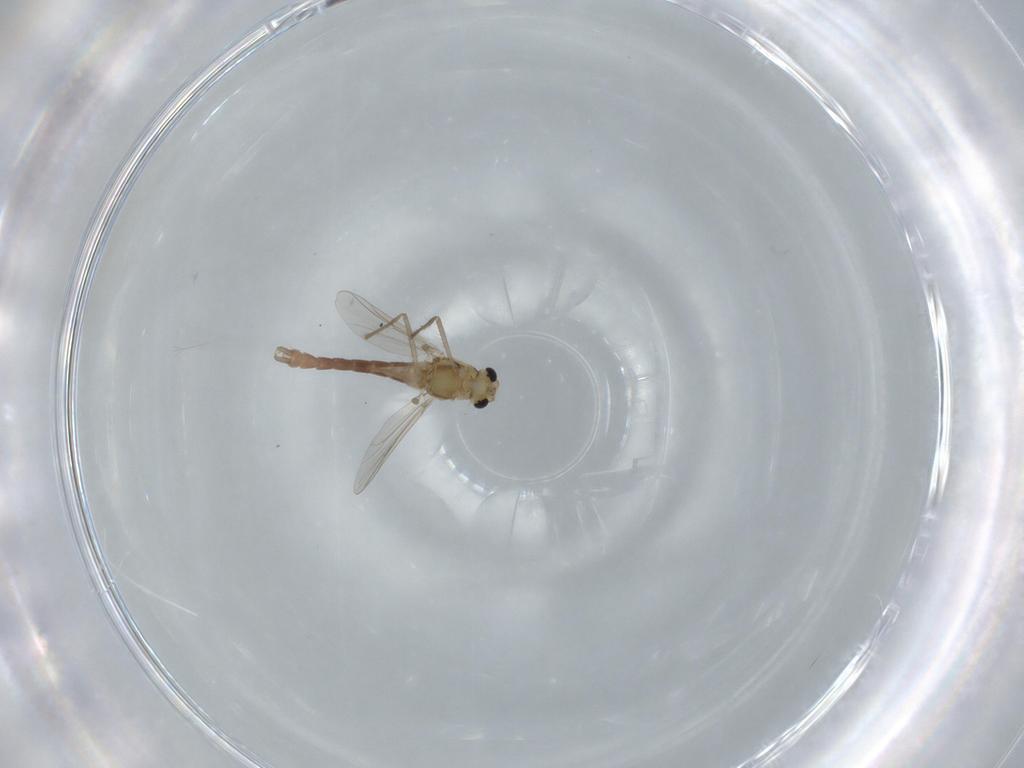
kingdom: Animalia
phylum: Arthropoda
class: Insecta
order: Diptera
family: Chironomidae
